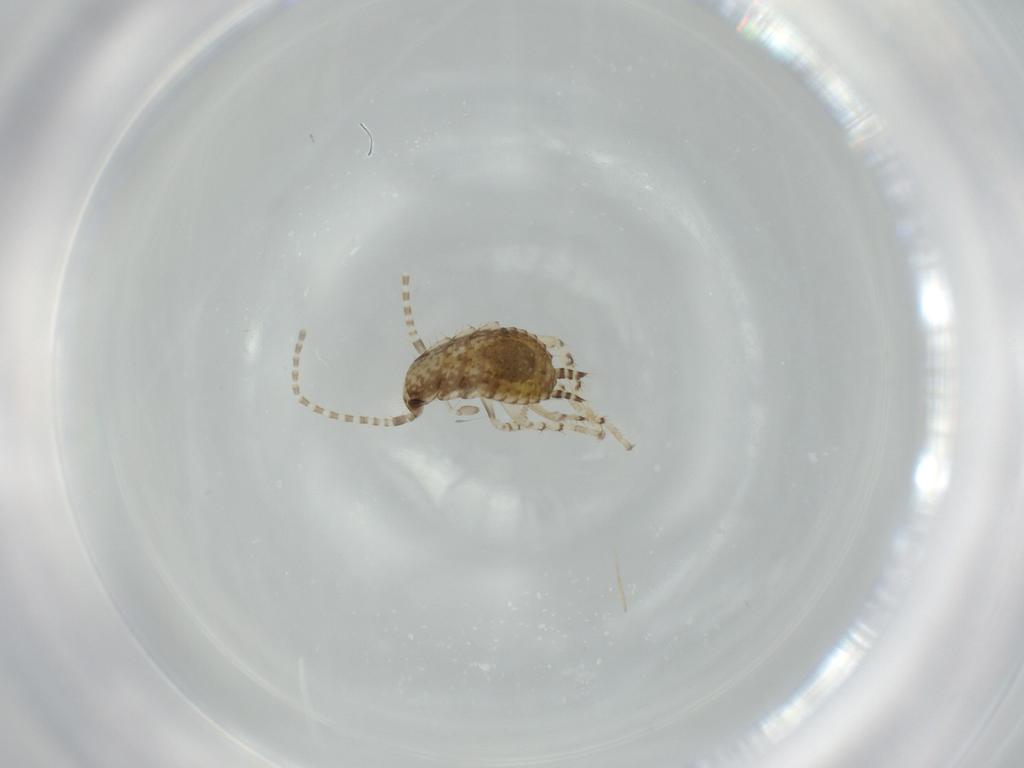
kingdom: Animalia
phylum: Arthropoda
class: Insecta
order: Blattodea
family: Ectobiidae
